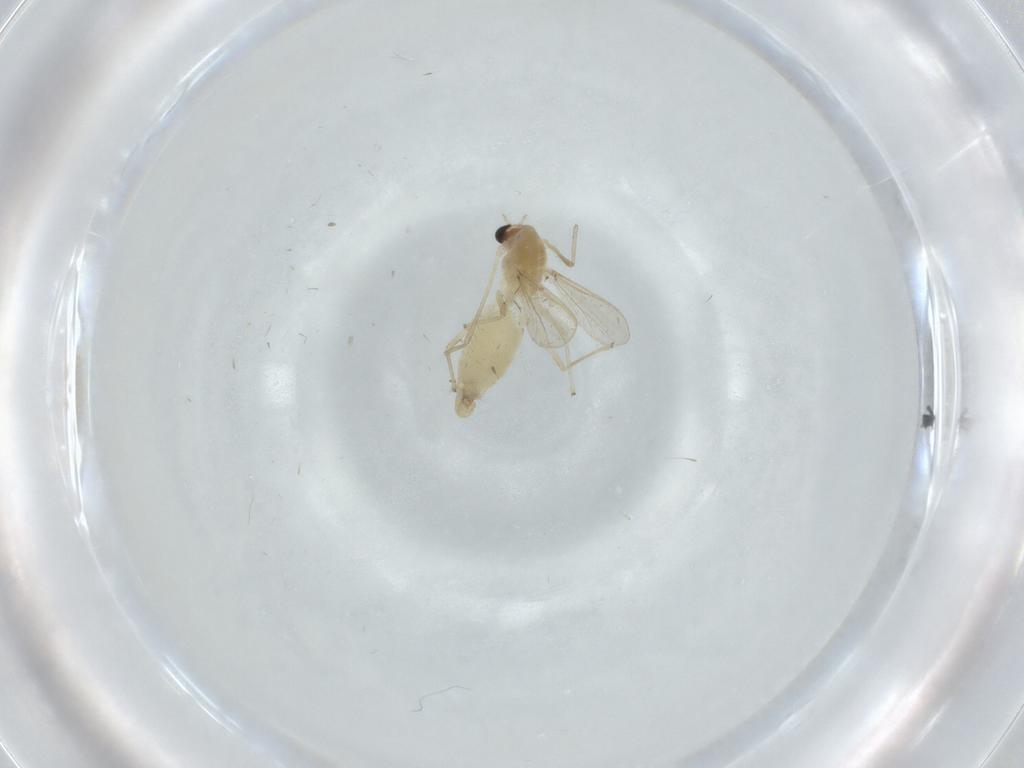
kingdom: Animalia
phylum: Arthropoda
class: Insecta
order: Diptera
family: Chironomidae
